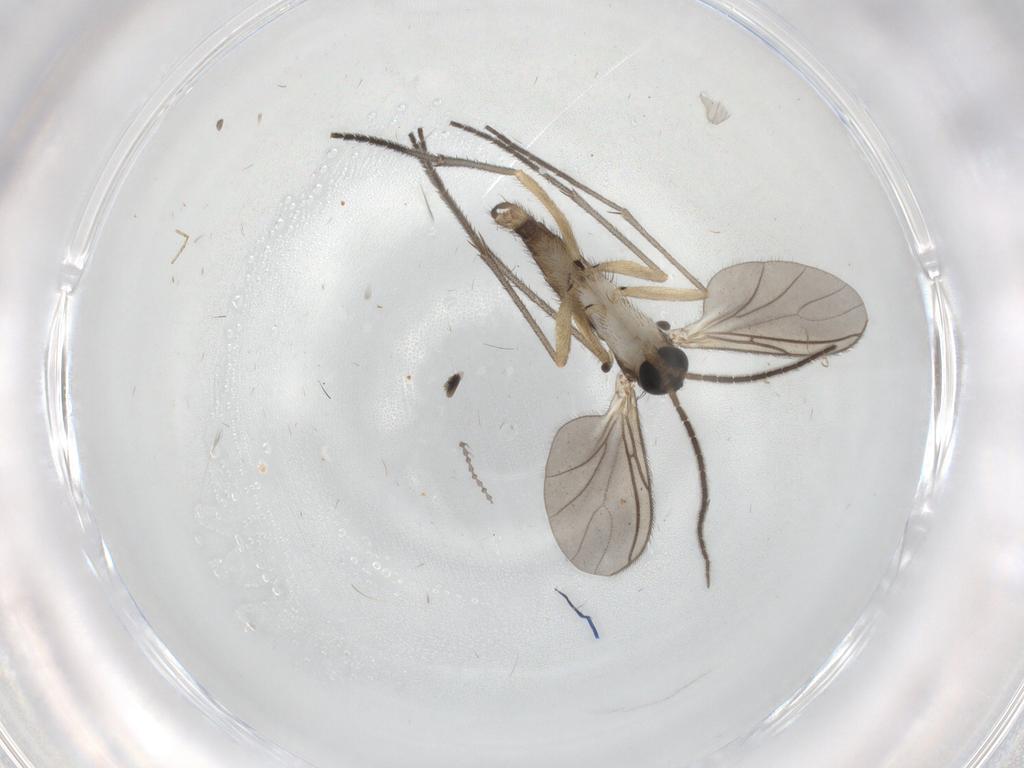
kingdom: Animalia
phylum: Arthropoda
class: Insecta
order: Diptera
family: Sciaridae
